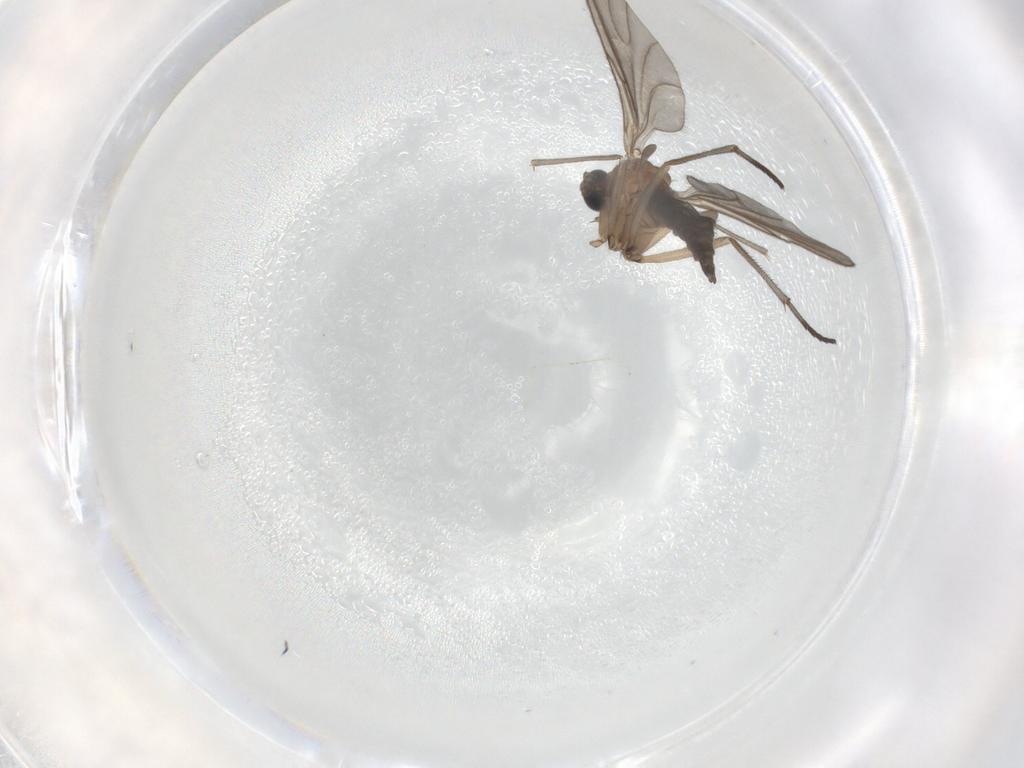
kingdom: Animalia
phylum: Arthropoda
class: Insecta
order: Diptera
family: Sciaridae
